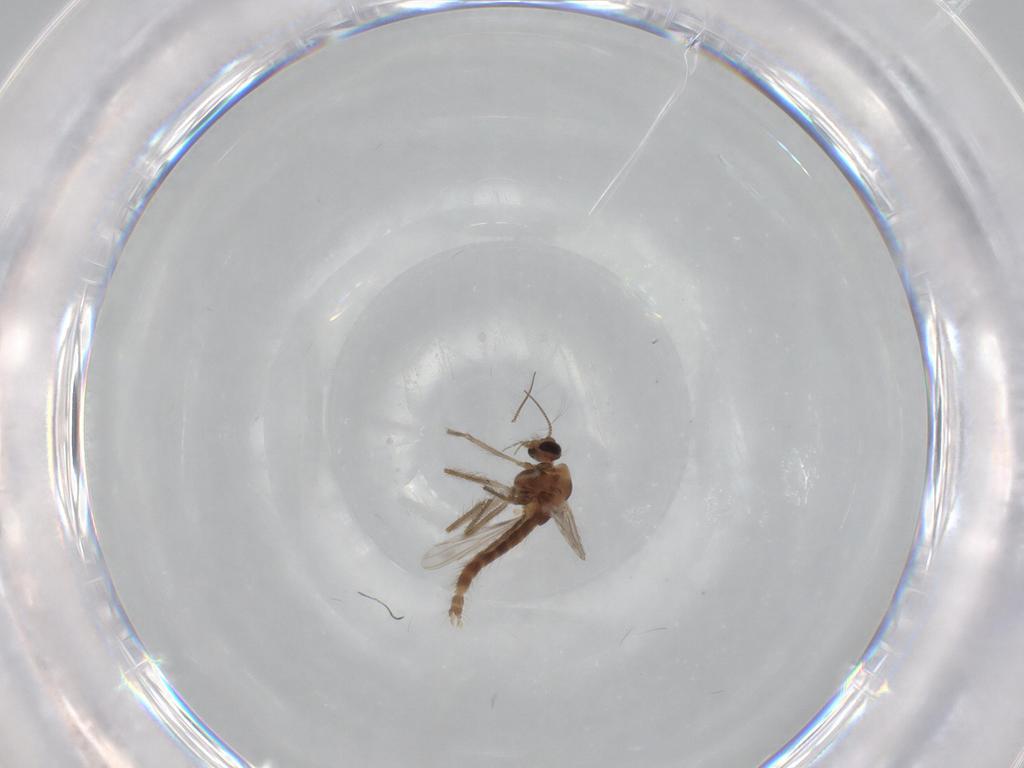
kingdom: Animalia
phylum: Arthropoda
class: Insecta
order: Diptera
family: Chironomidae
